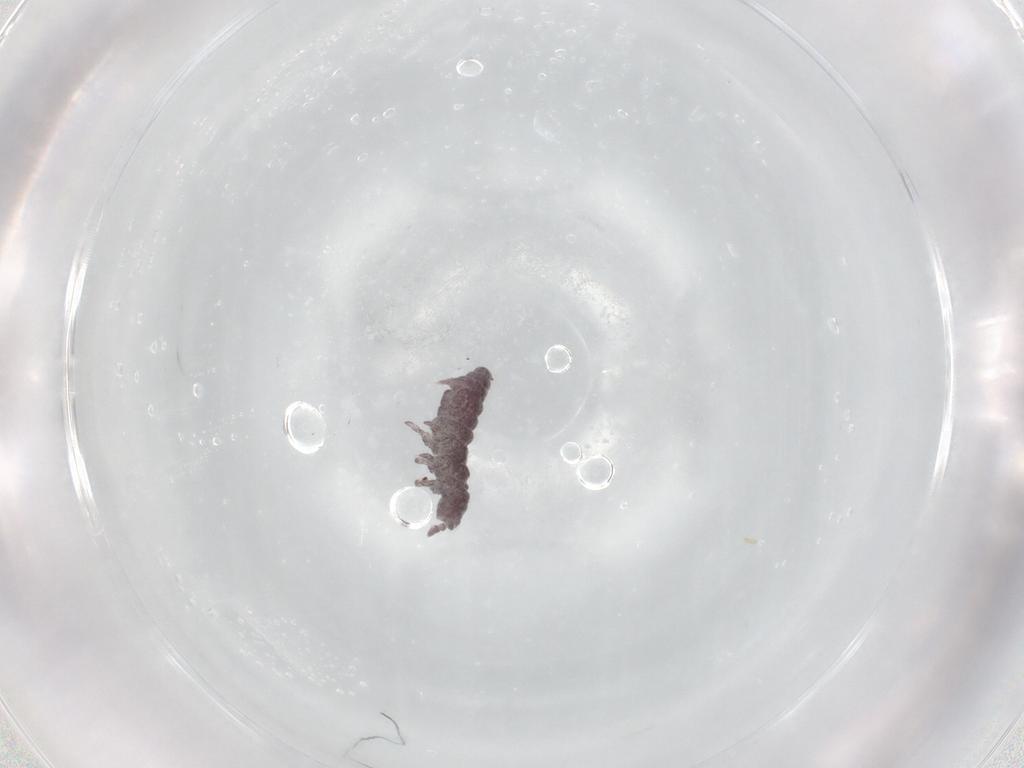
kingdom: Animalia
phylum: Arthropoda
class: Collembola
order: Poduromorpha
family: Hypogastruridae
